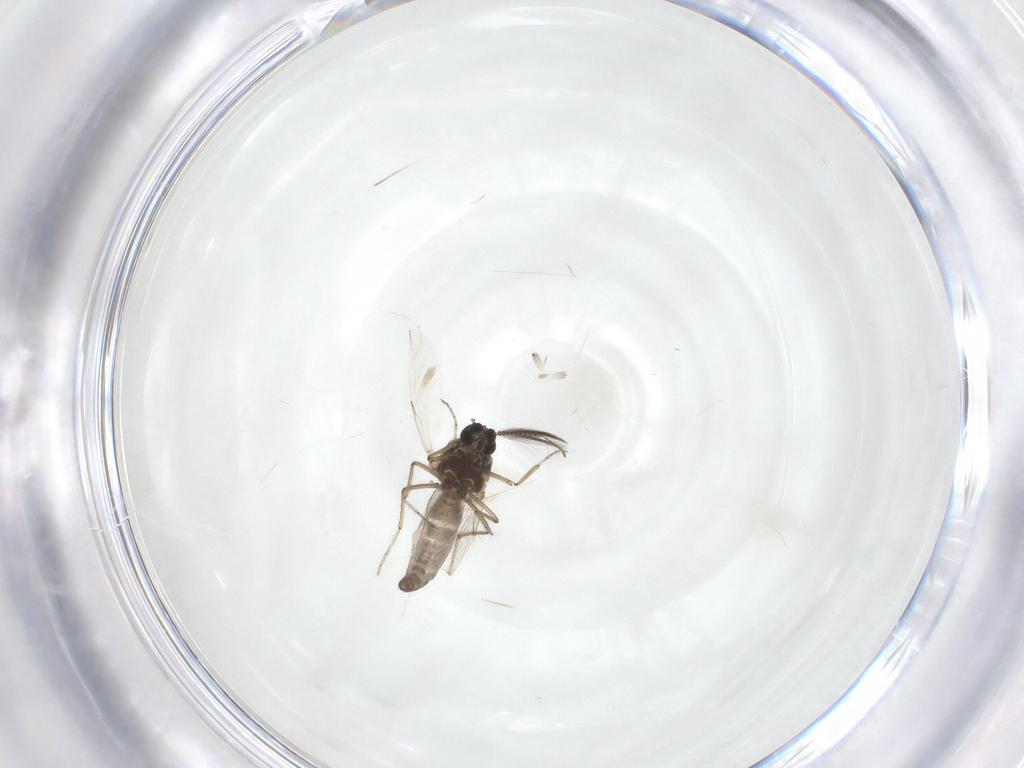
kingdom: Animalia
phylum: Arthropoda
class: Insecta
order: Diptera
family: Ceratopogonidae
